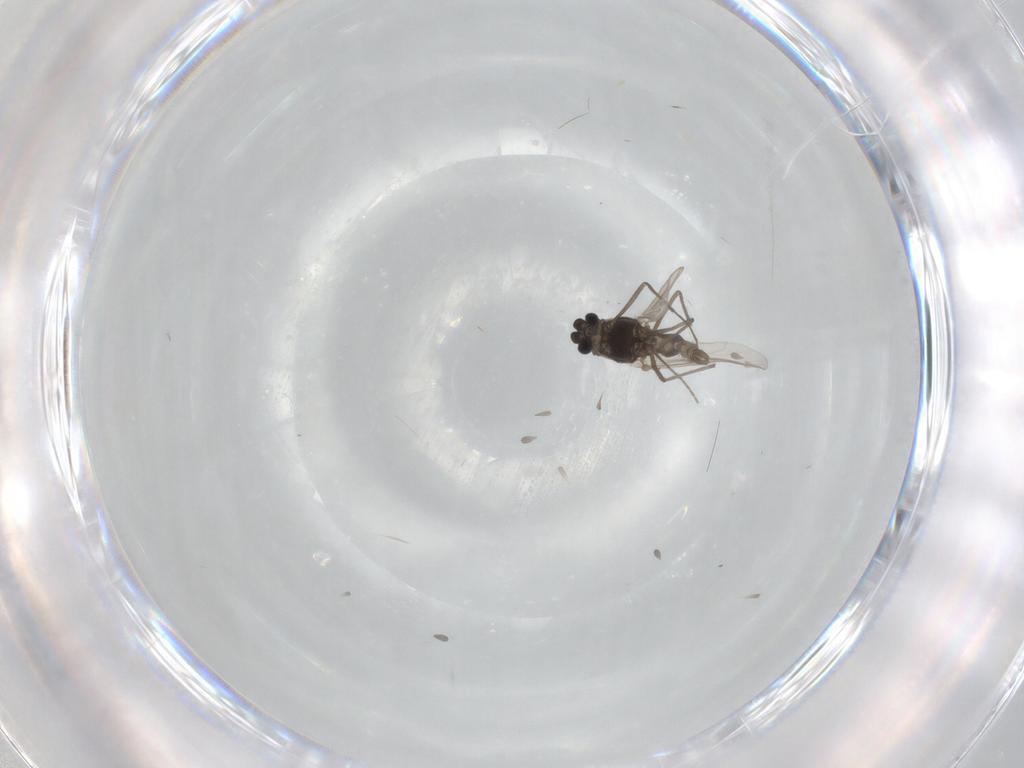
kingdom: Animalia
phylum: Arthropoda
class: Insecta
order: Diptera
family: Chironomidae
